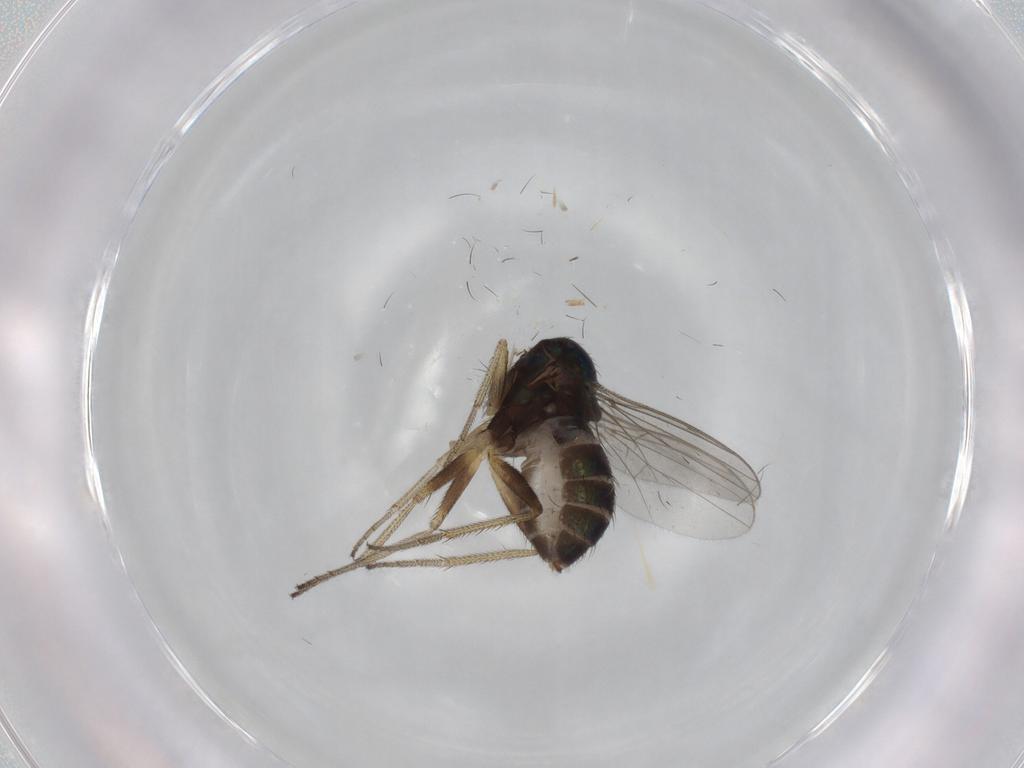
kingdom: Animalia
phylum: Arthropoda
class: Insecta
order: Diptera
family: Dolichopodidae
